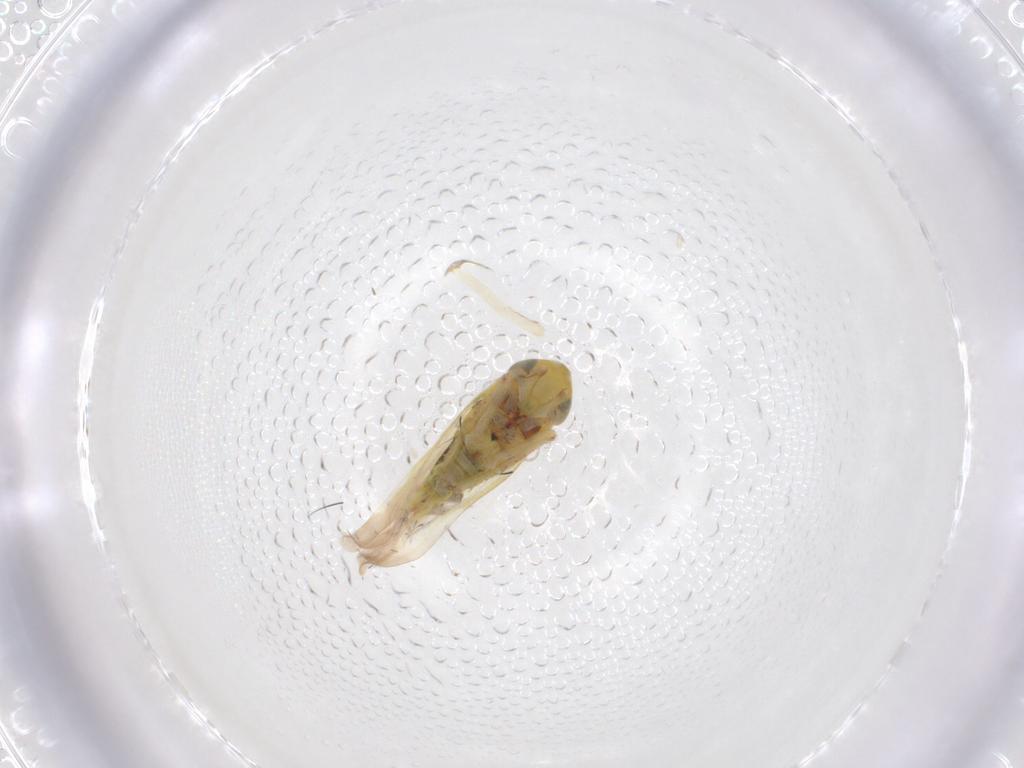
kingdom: Animalia
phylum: Arthropoda
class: Insecta
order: Hemiptera
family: Cicadellidae
